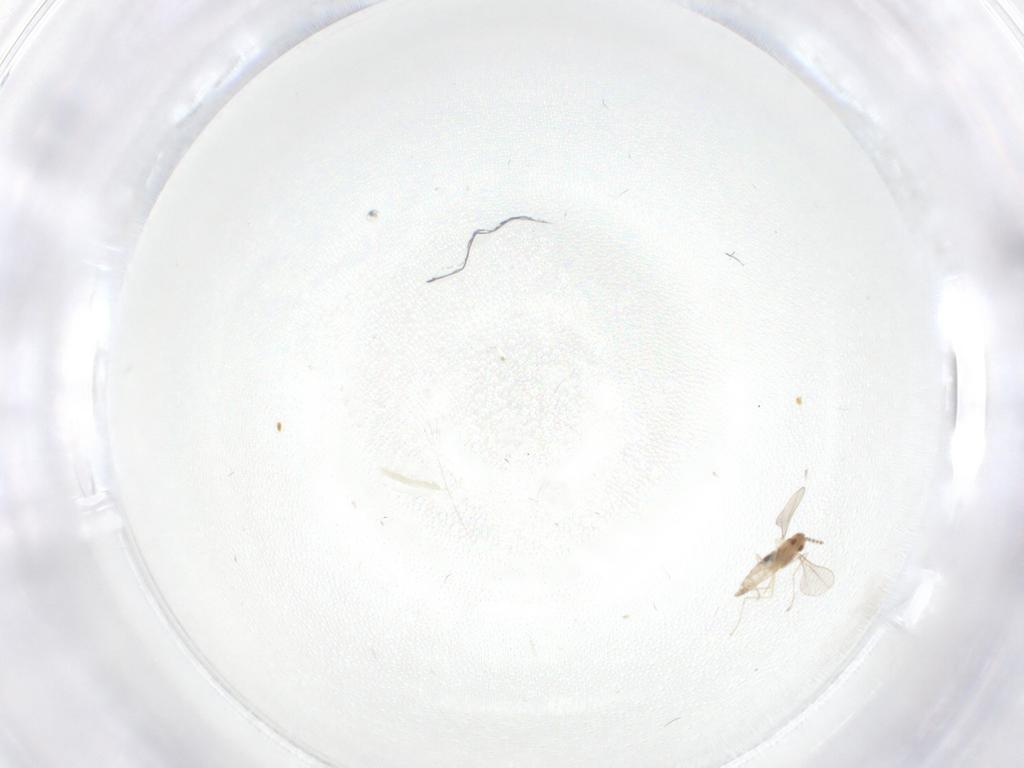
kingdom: Animalia
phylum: Arthropoda
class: Insecta
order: Diptera
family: Cecidomyiidae
